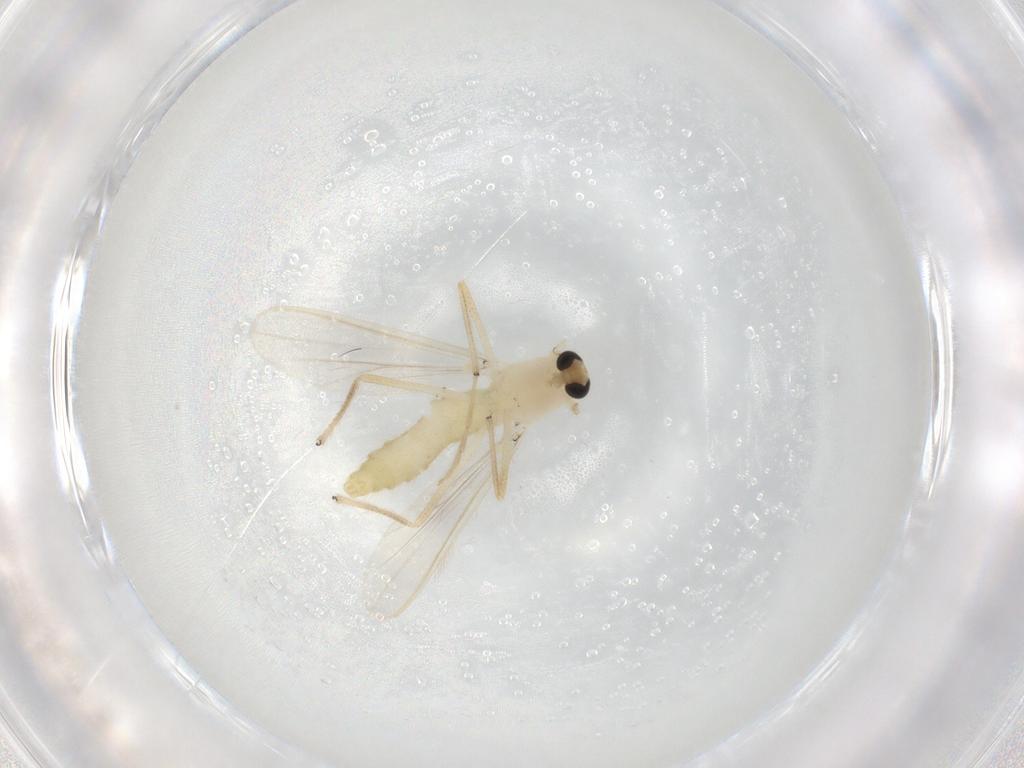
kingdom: Animalia
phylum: Arthropoda
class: Insecta
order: Diptera
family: Chironomidae
